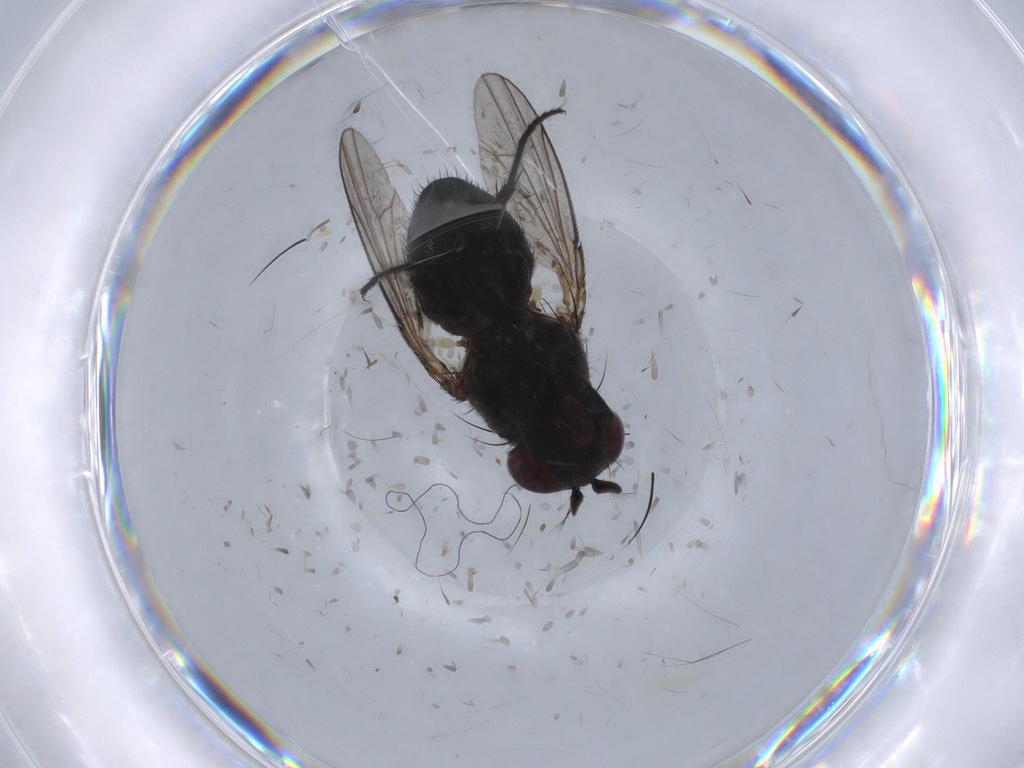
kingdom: Animalia
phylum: Arthropoda
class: Insecta
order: Diptera
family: Ephydridae
